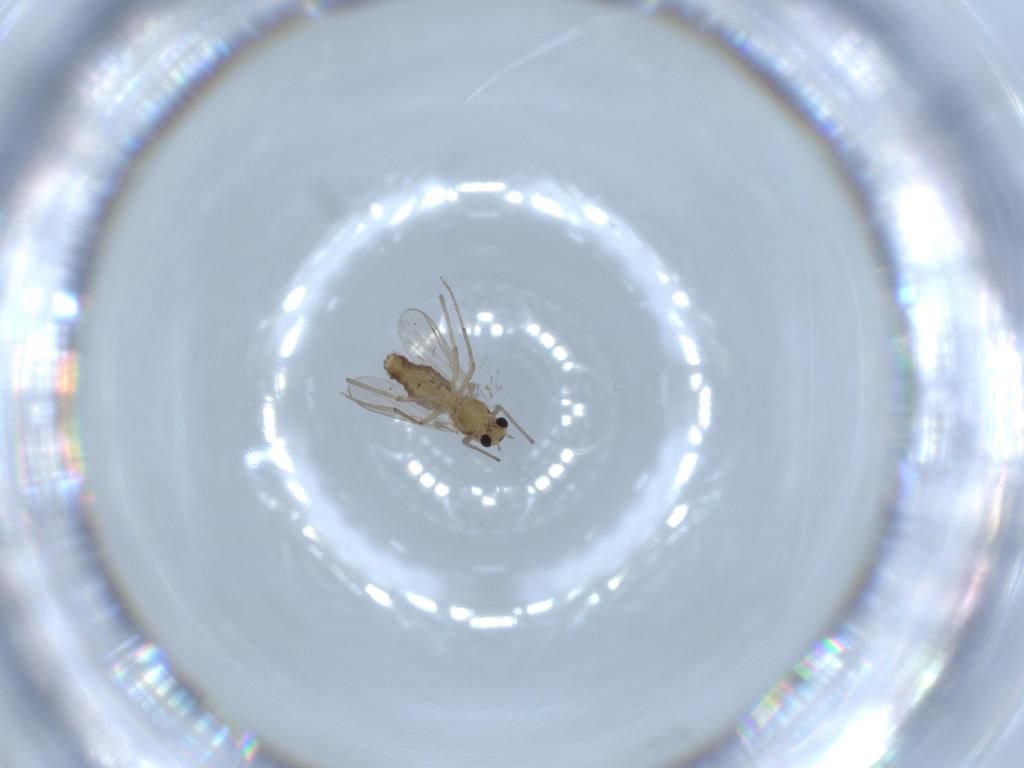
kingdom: Animalia
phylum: Arthropoda
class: Insecta
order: Diptera
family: Chironomidae
